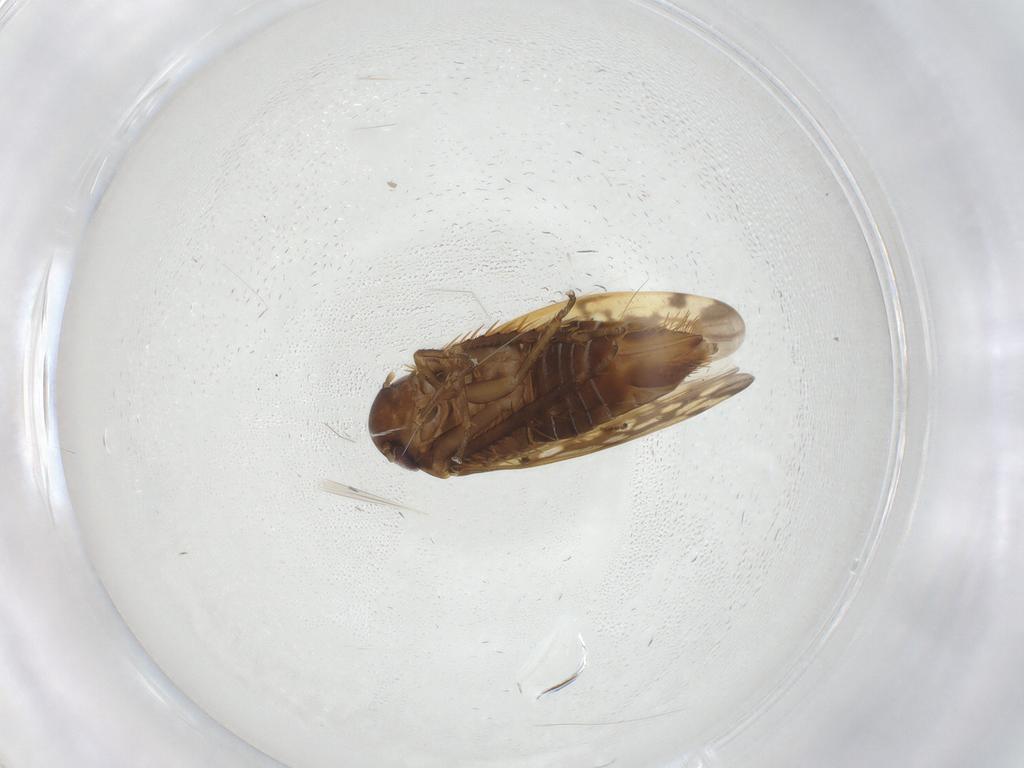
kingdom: Animalia
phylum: Arthropoda
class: Insecta
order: Hemiptera
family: Cicadellidae
